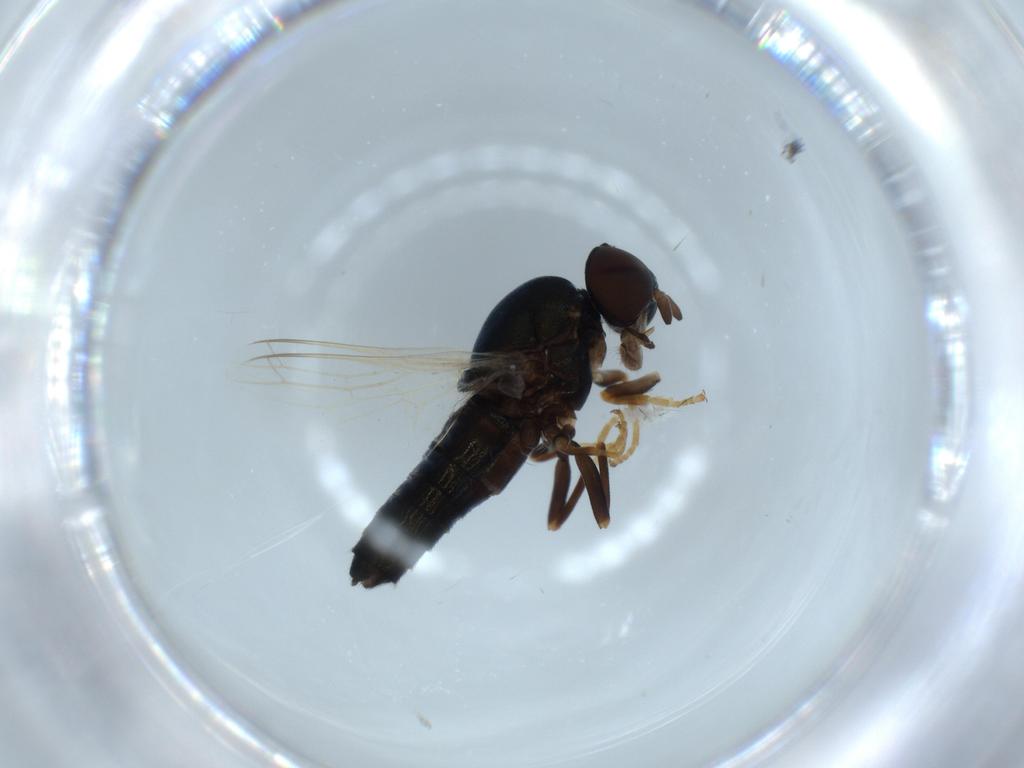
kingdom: Animalia
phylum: Arthropoda
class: Insecta
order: Diptera
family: Scenopinidae
